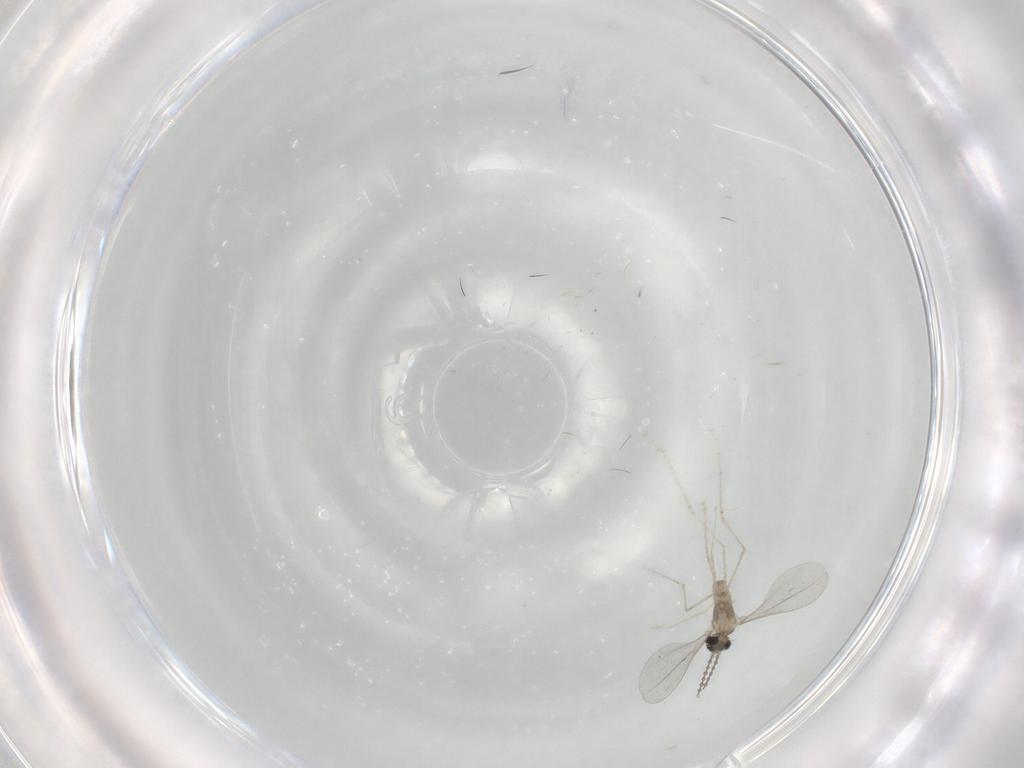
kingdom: Animalia
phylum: Arthropoda
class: Insecta
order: Diptera
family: Cecidomyiidae
